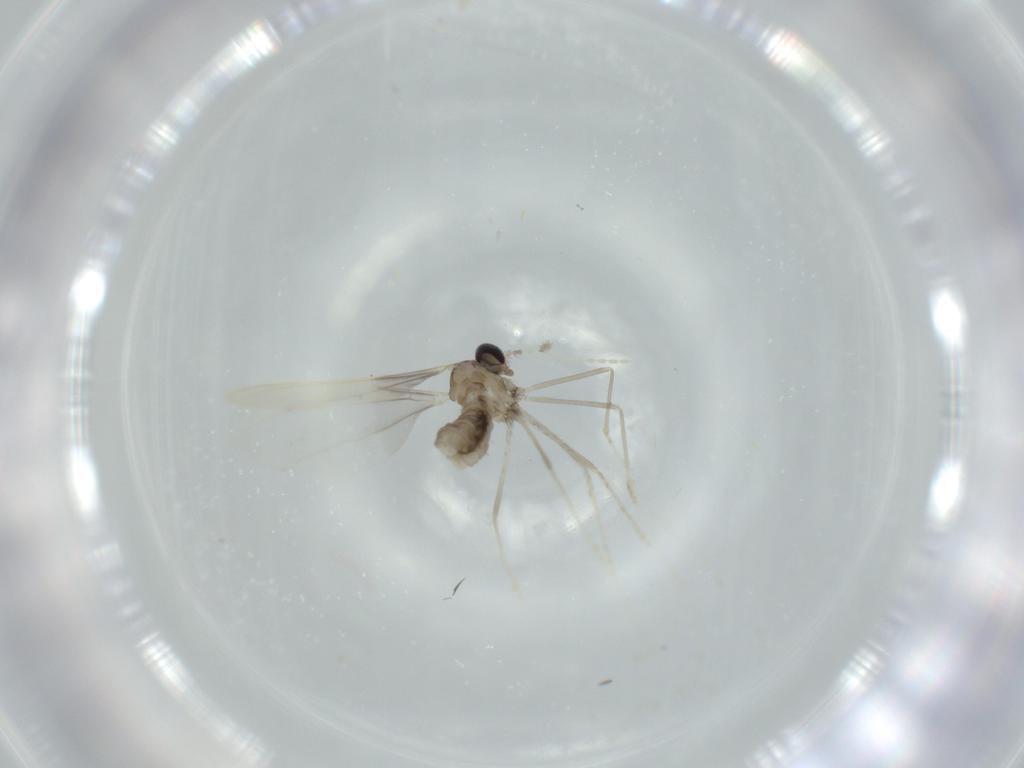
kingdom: Animalia
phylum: Arthropoda
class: Insecta
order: Diptera
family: Cecidomyiidae
